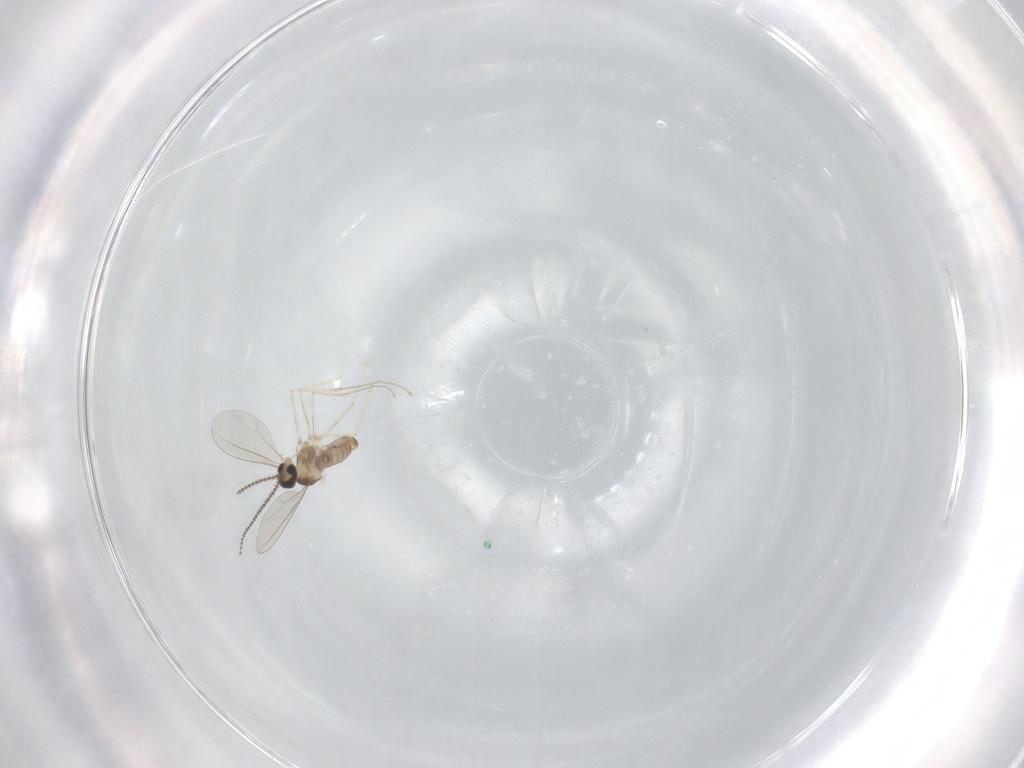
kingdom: Animalia
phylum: Arthropoda
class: Insecta
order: Diptera
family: Cecidomyiidae
